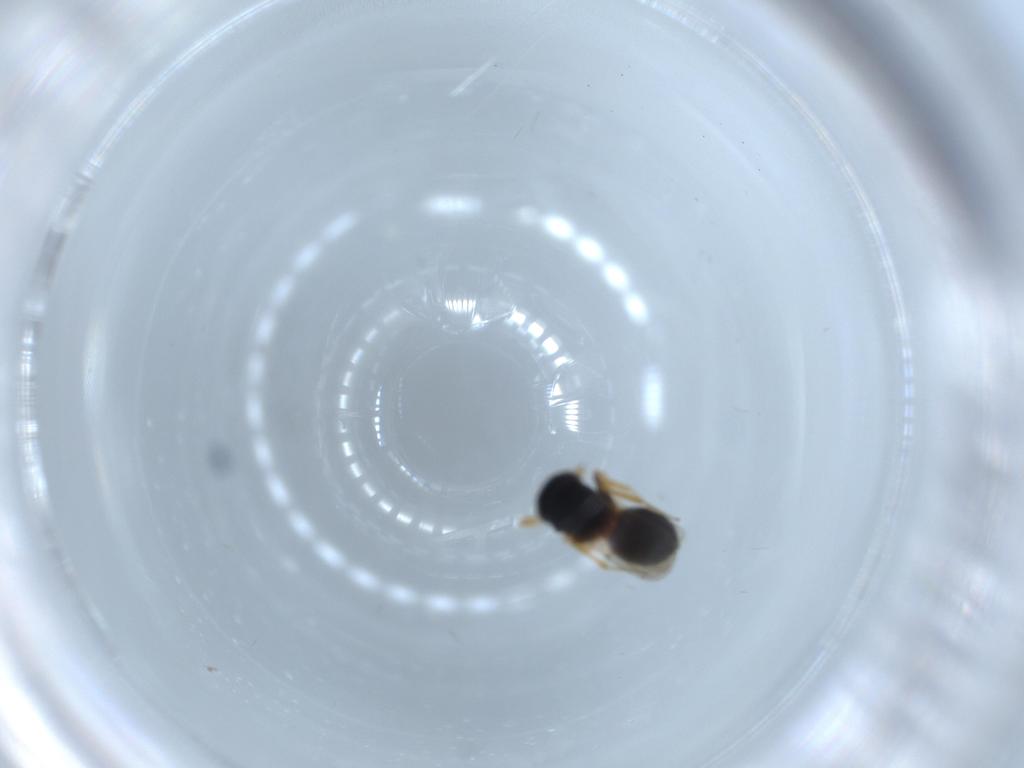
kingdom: Animalia
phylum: Arthropoda
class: Insecta
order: Hymenoptera
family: Scelionidae
